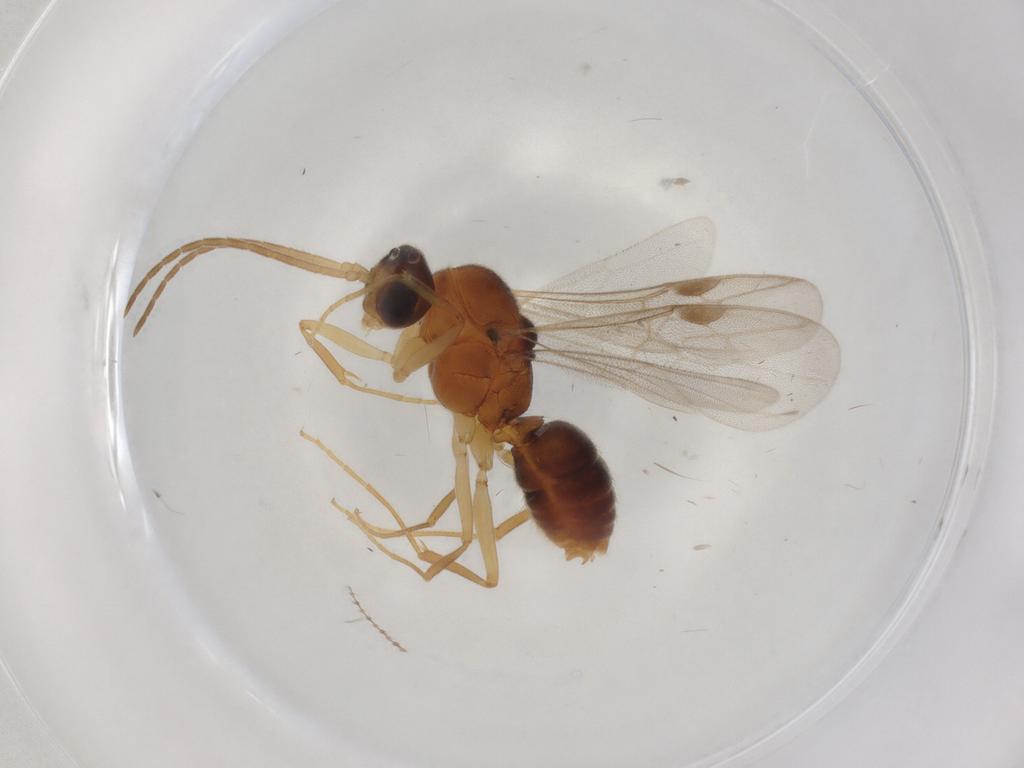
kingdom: Animalia
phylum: Arthropoda
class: Insecta
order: Hymenoptera
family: Formicidae
